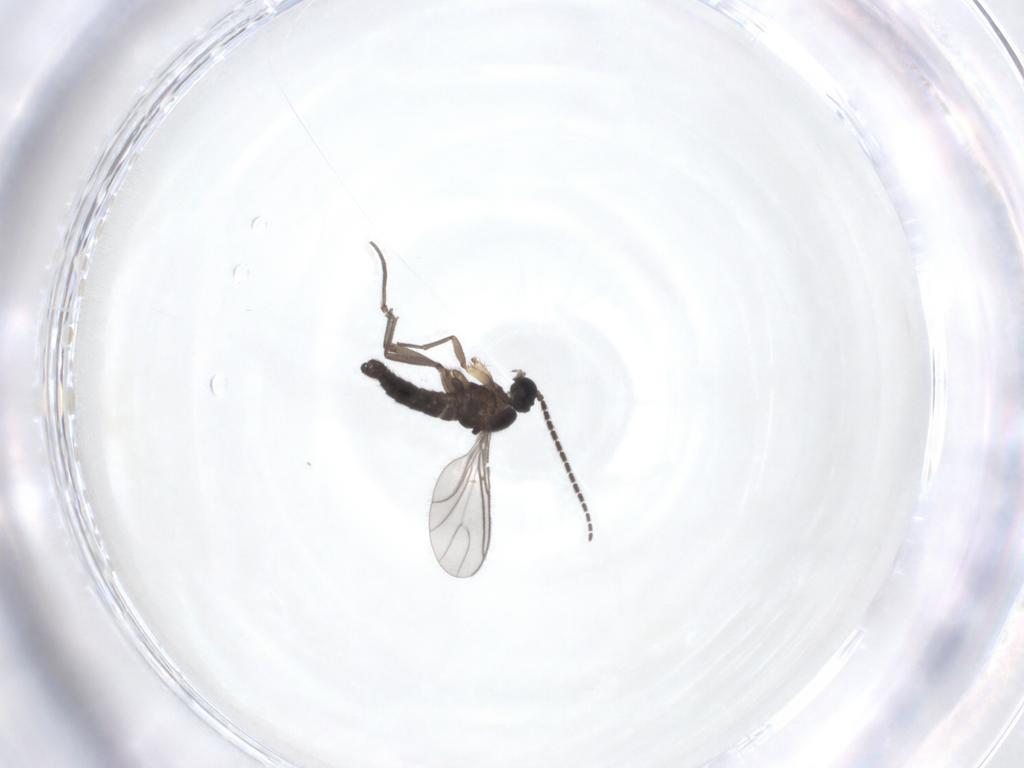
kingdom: Animalia
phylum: Arthropoda
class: Insecta
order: Diptera
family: Sciaridae
